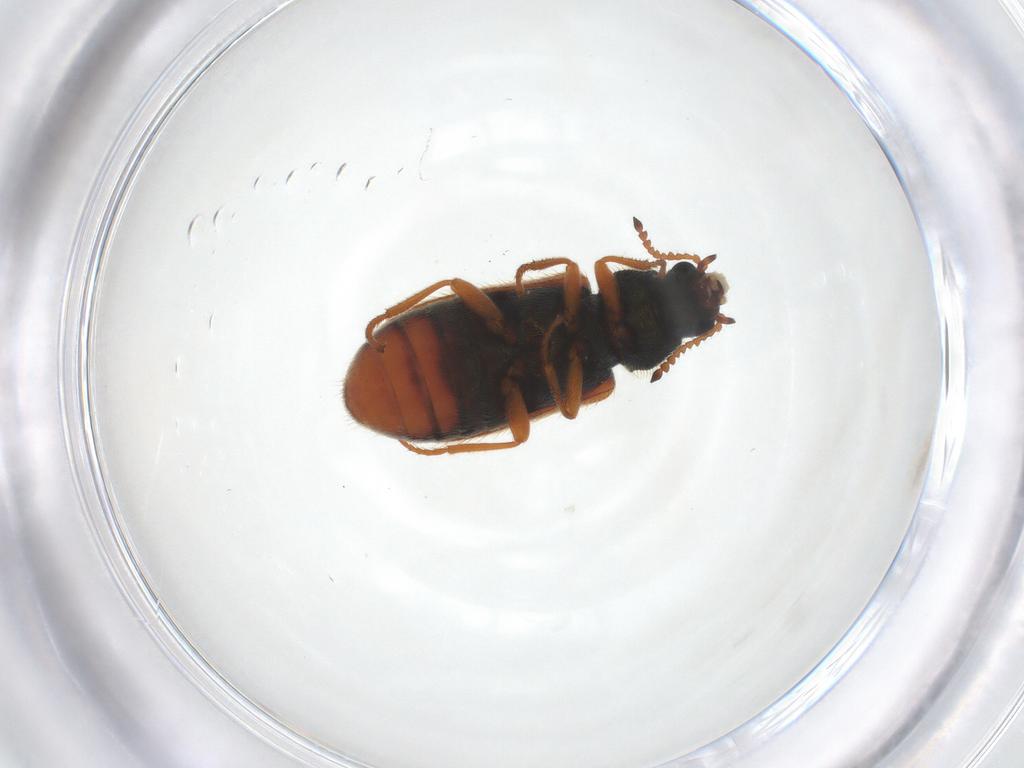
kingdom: Animalia
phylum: Arthropoda
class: Insecta
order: Coleoptera
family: Melyridae
